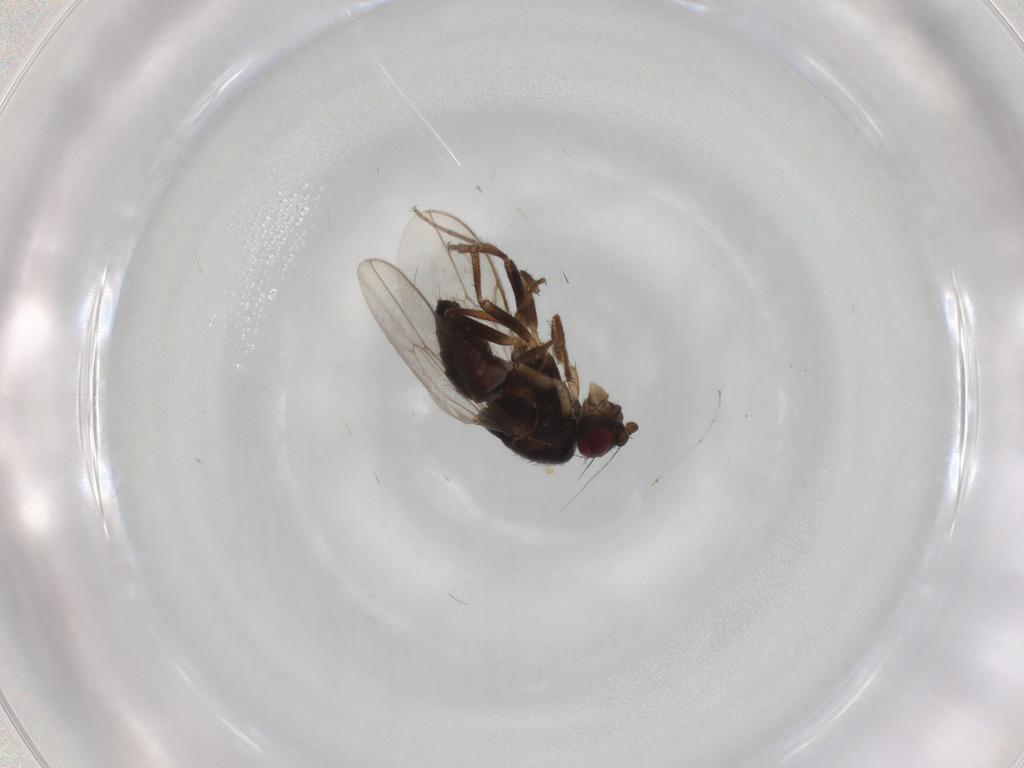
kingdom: Animalia
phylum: Arthropoda
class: Insecta
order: Diptera
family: Sphaeroceridae
